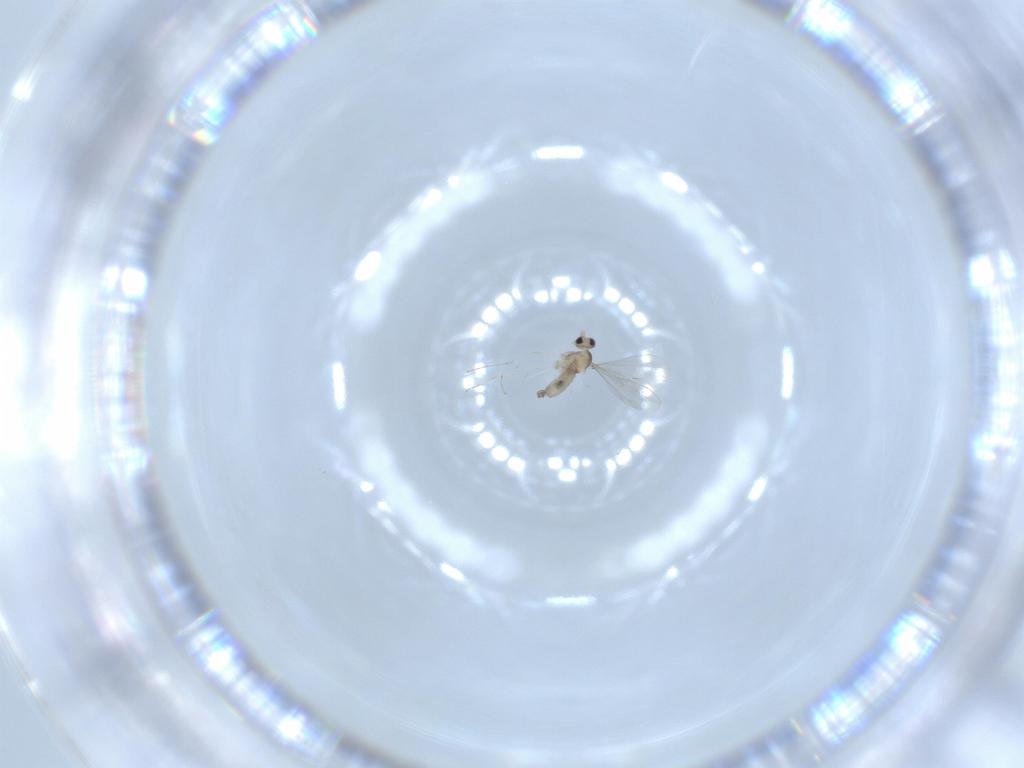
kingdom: Animalia
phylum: Arthropoda
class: Insecta
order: Diptera
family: Cecidomyiidae
